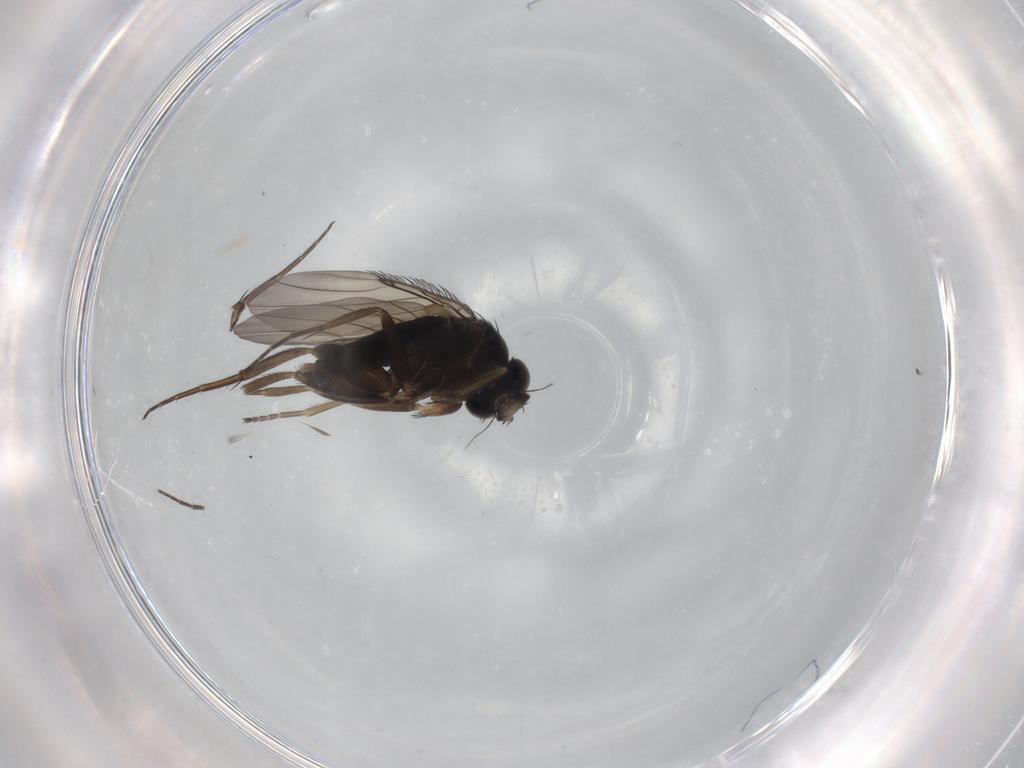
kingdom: Animalia
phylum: Arthropoda
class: Insecta
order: Diptera
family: Phoridae
